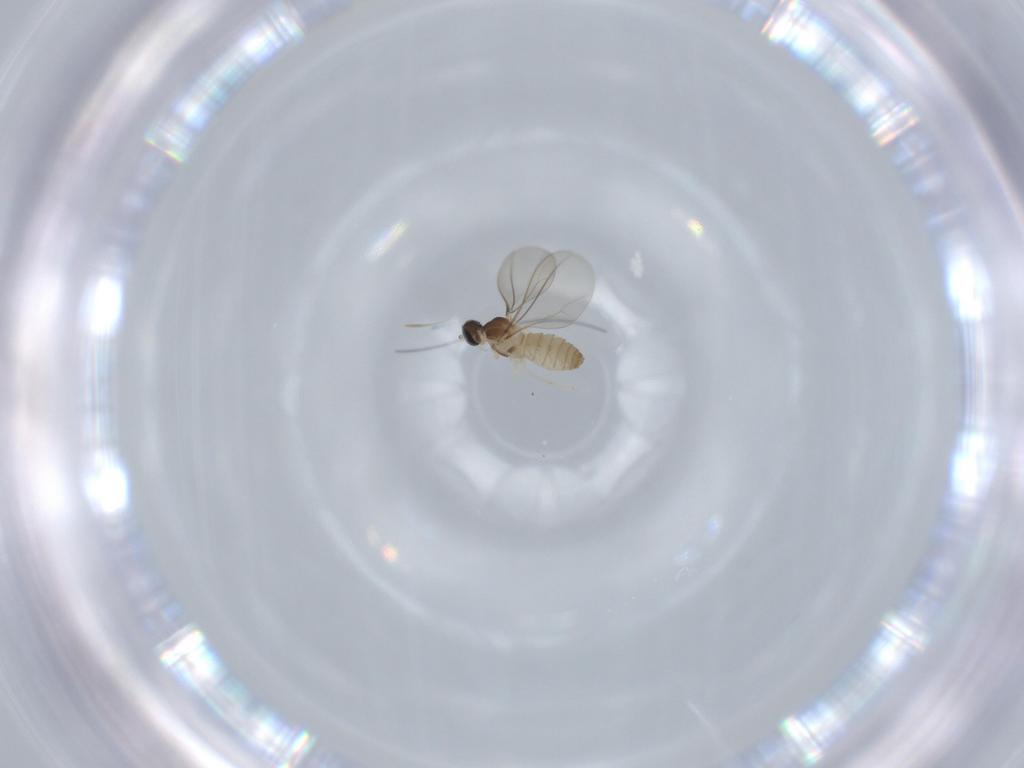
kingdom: Animalia
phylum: Arthropoda
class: Insecta
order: Diptera
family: Cecidomyiidae
